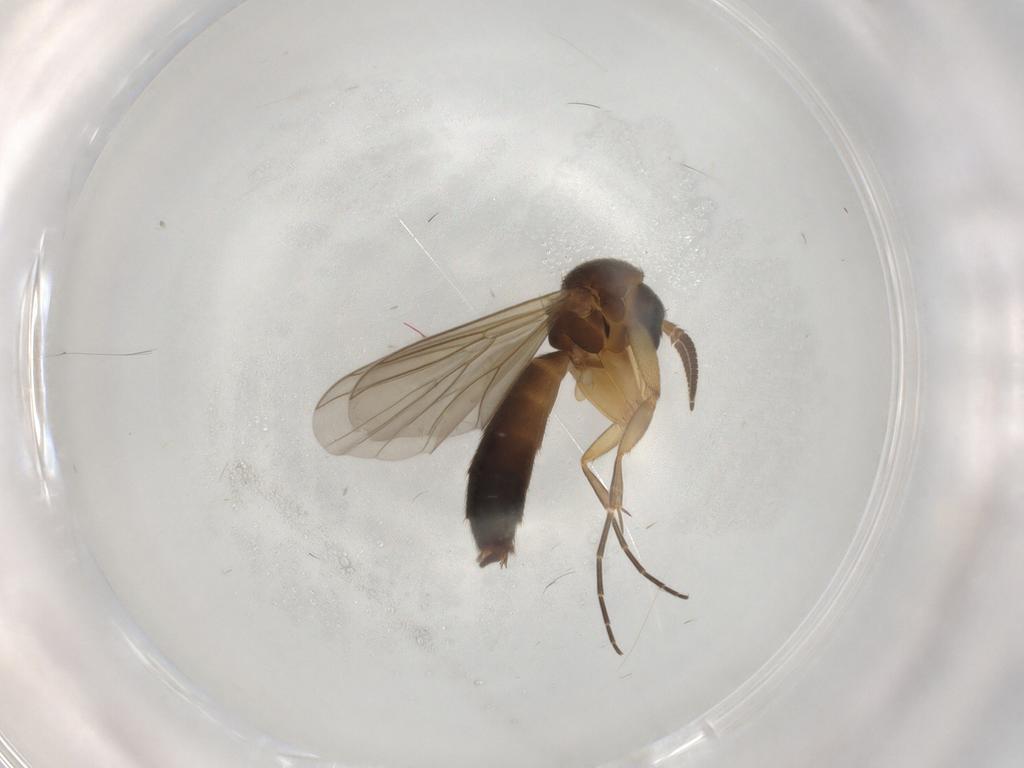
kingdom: Animalia
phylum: Arthropoda
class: Insecta
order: Diptera
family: Mycetophilidae
